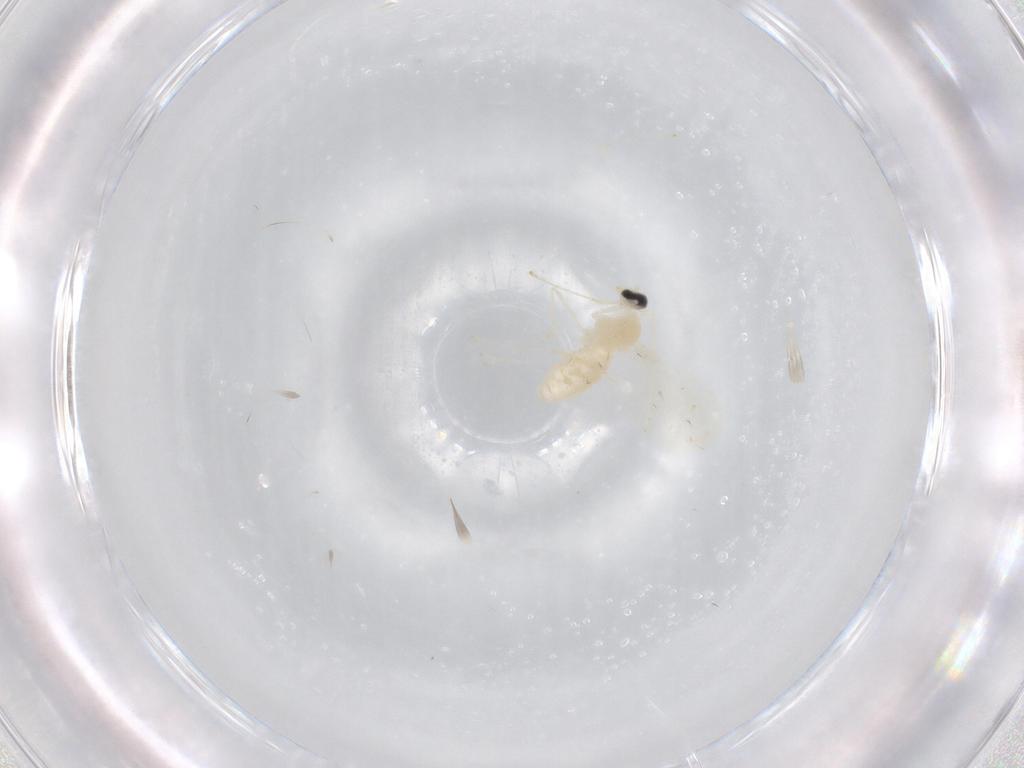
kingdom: Animalia
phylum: Arthropoda
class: Insecta
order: Diptera
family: Cecidomyiidae
